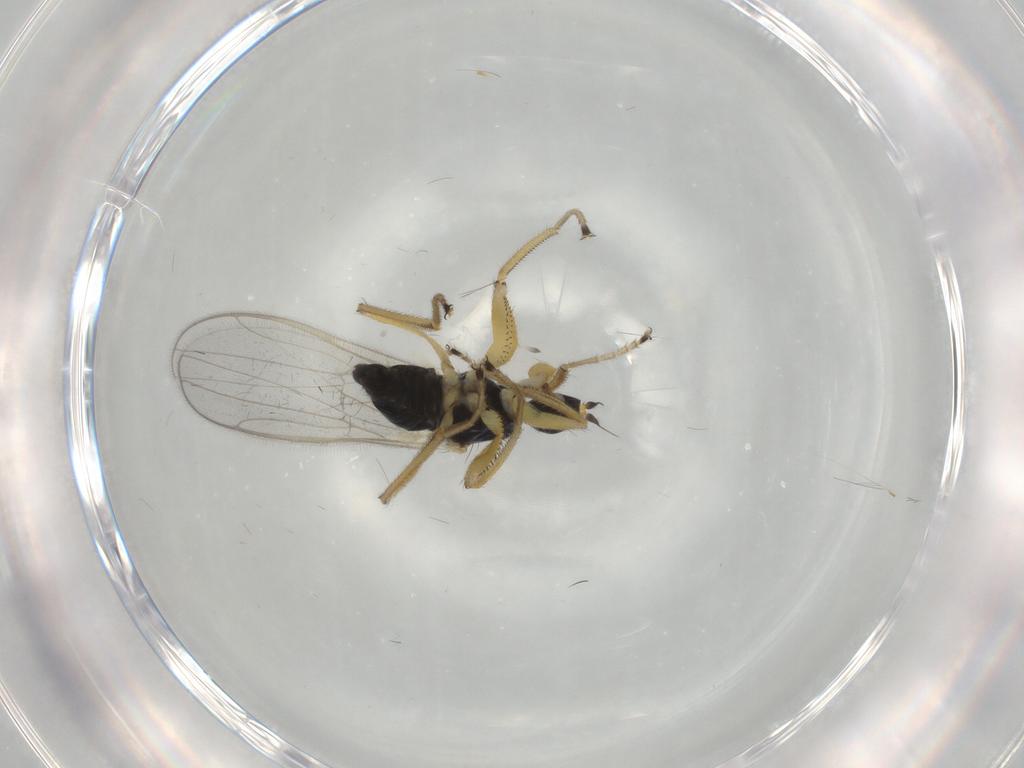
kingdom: Animalia
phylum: Arthropoda
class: Insecta
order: Diptera
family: Hybotidae
